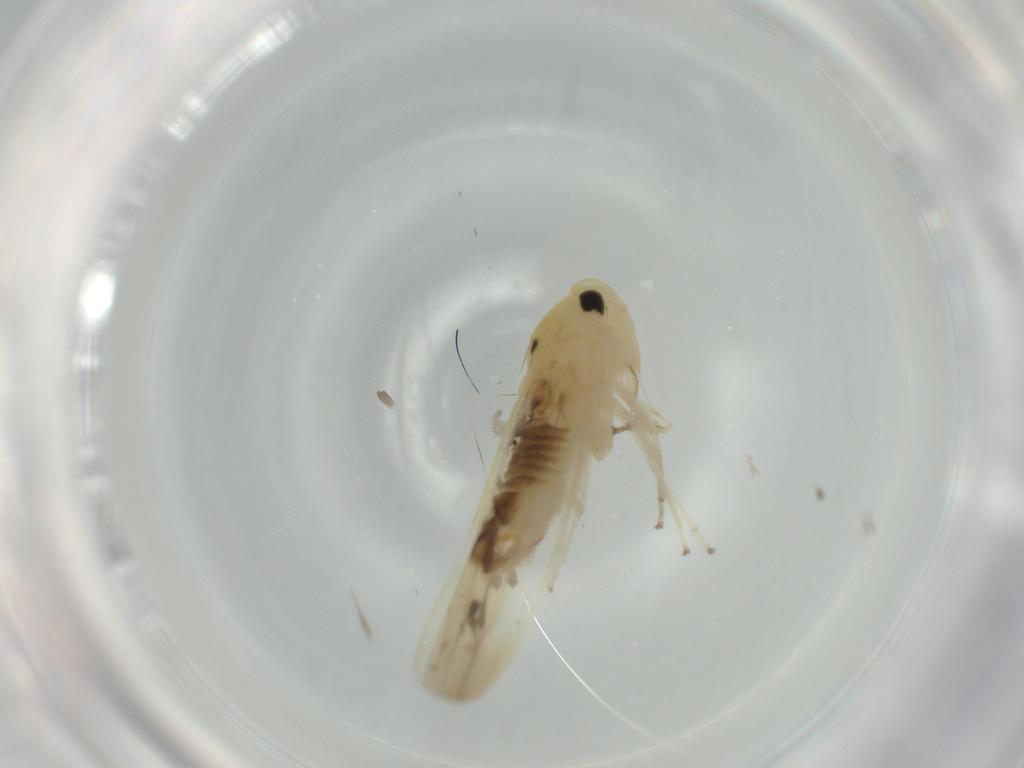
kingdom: Animalia
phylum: Arthropoda
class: Insecta
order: Hemiptera
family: Cicadellidae
